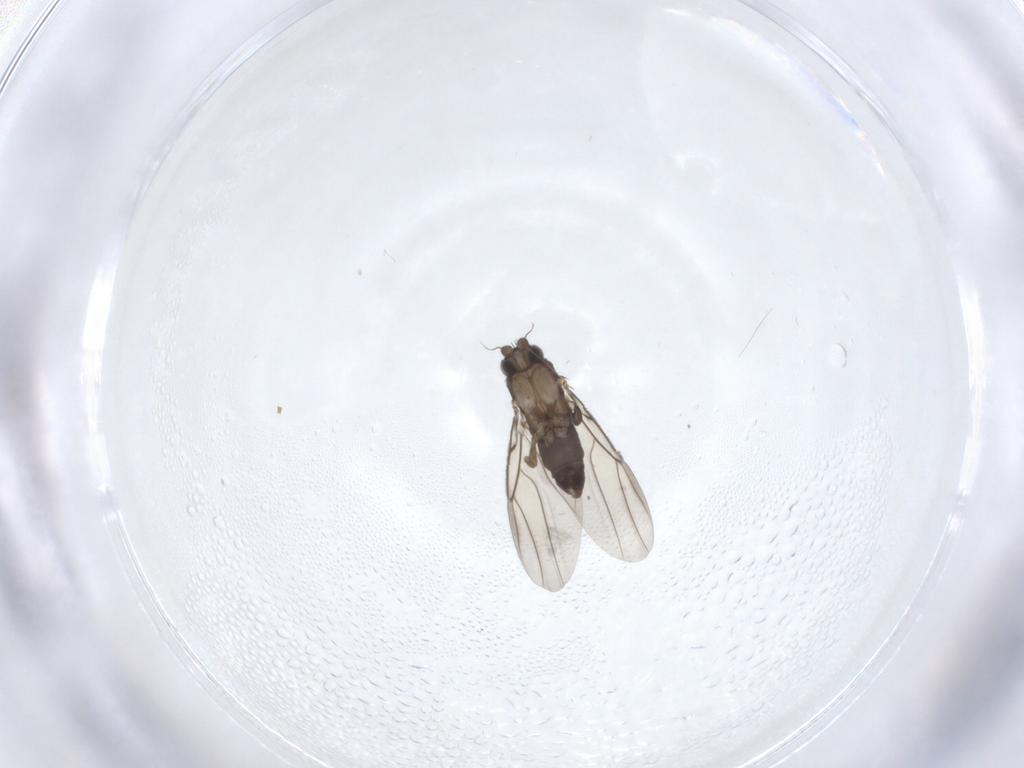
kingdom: Animalia
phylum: Arthropoda
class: Insecta
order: Diptera
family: Phoridae
